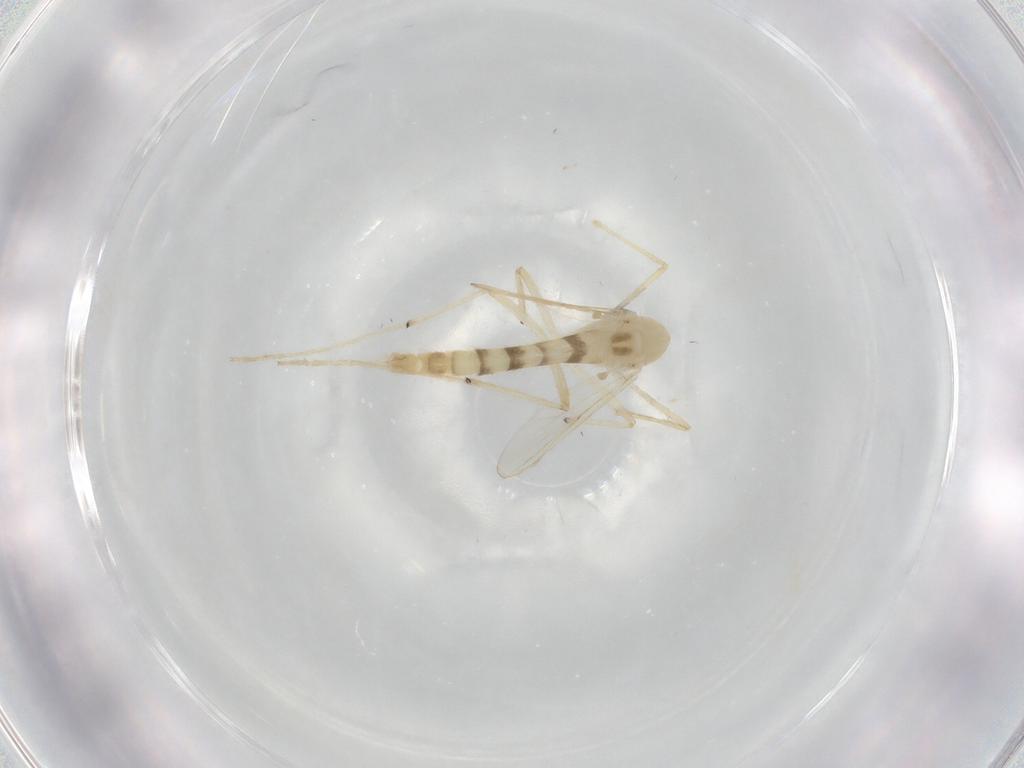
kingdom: Animalia
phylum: Arthropoda
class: Insecta
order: Diptera
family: Chironomidae
